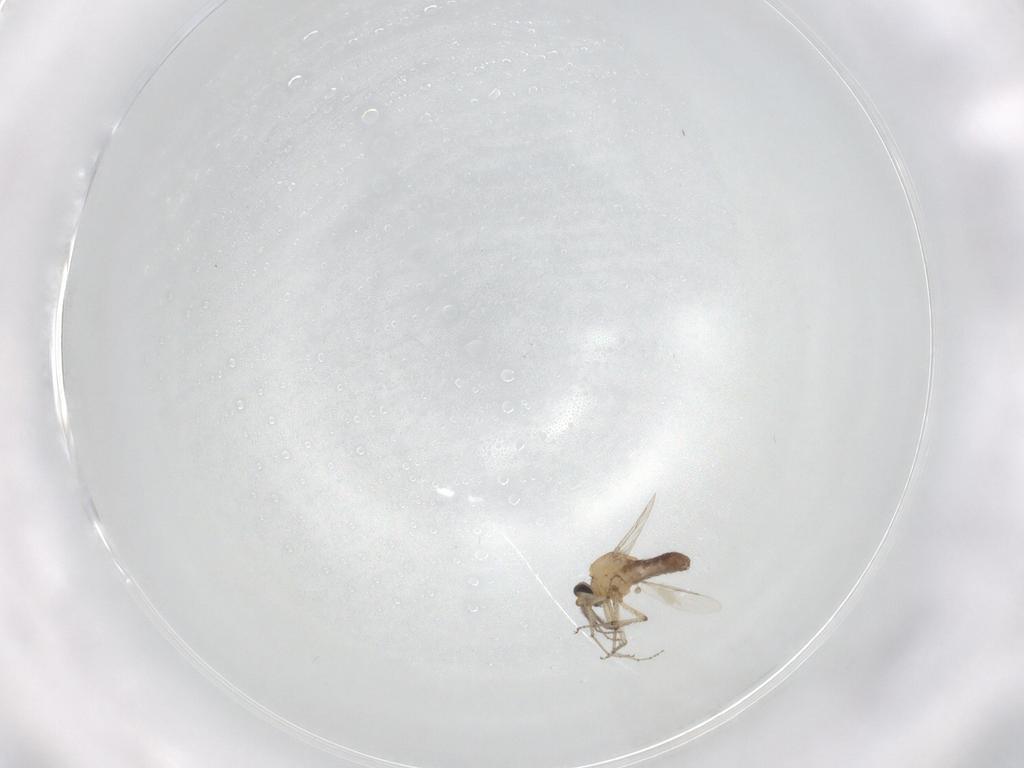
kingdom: Animalia
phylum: Arthropoda
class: Insecta
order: Diptera
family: Ceratopogonidae
